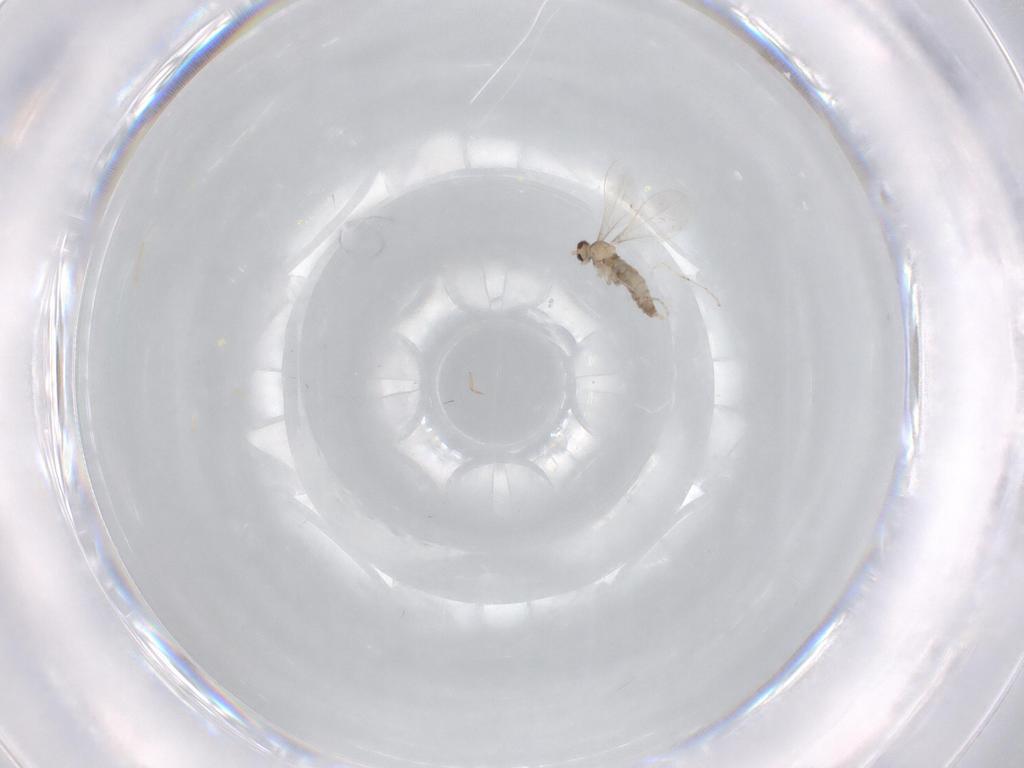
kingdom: Animalia
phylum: Arthropoda
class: Insecta
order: Diptera
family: Cecidomyiidae
